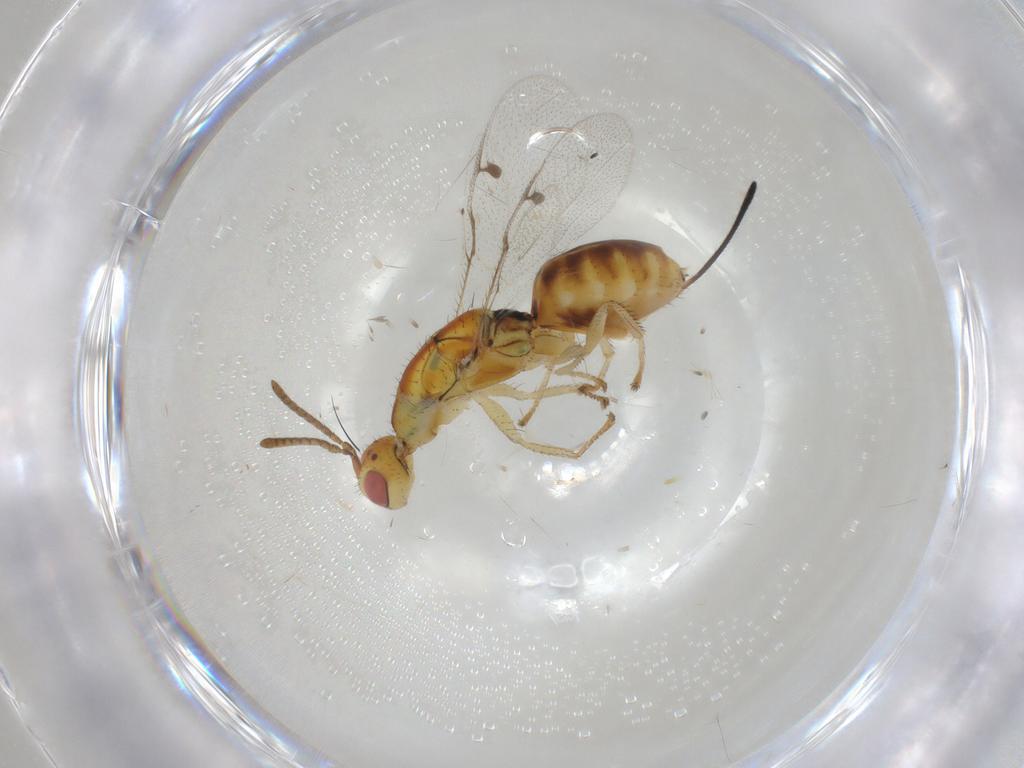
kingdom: Animalia
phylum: Arthropoda
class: Insecta
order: Hymenoptera
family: Megastigmidae
